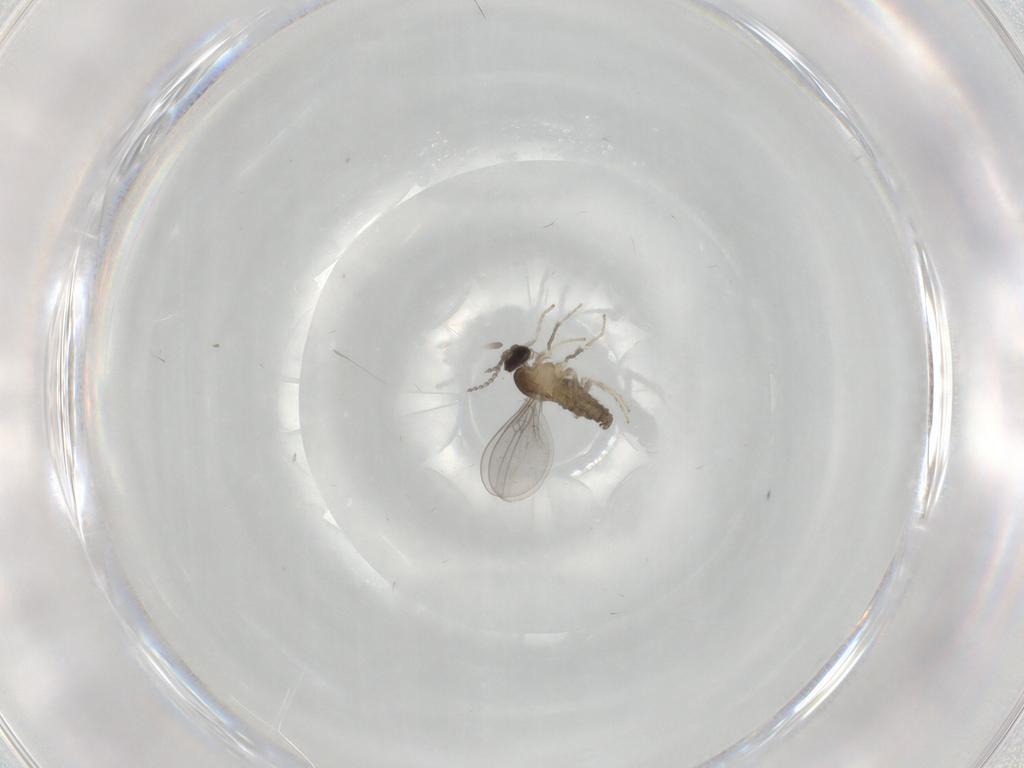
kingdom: Animalia
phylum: Arthropoda
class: Insecta
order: Diptera
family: Cecidomyiidae
